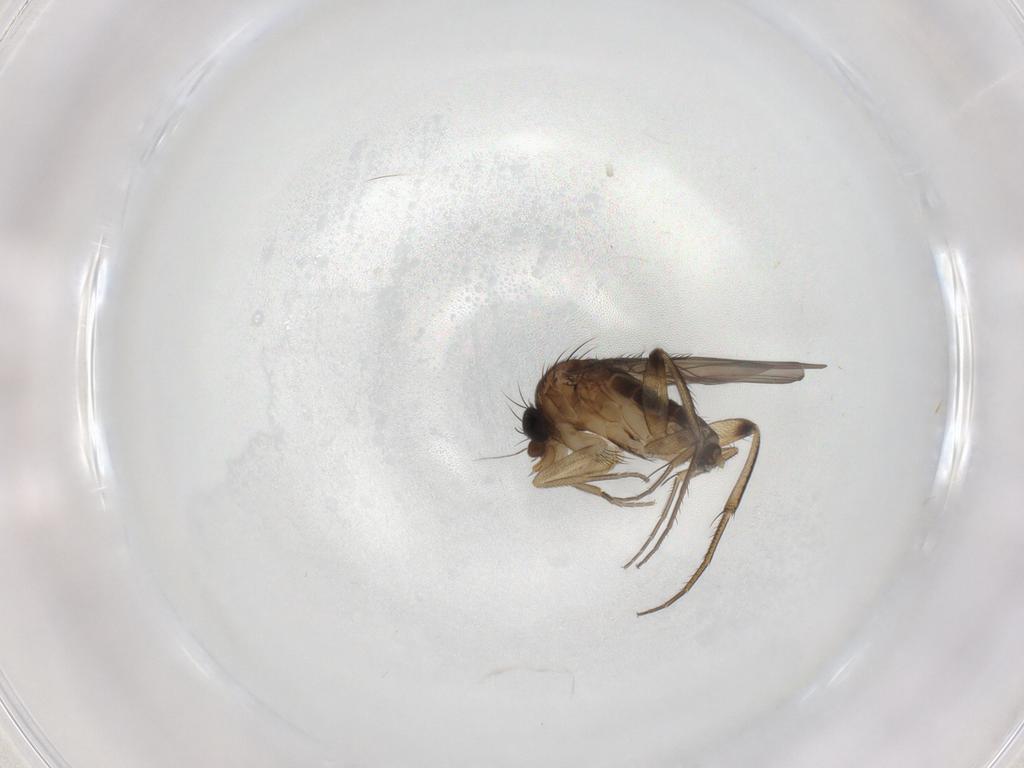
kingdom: Animalia
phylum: Arthropoda
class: Insecta
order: Diptera
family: Phoridae
